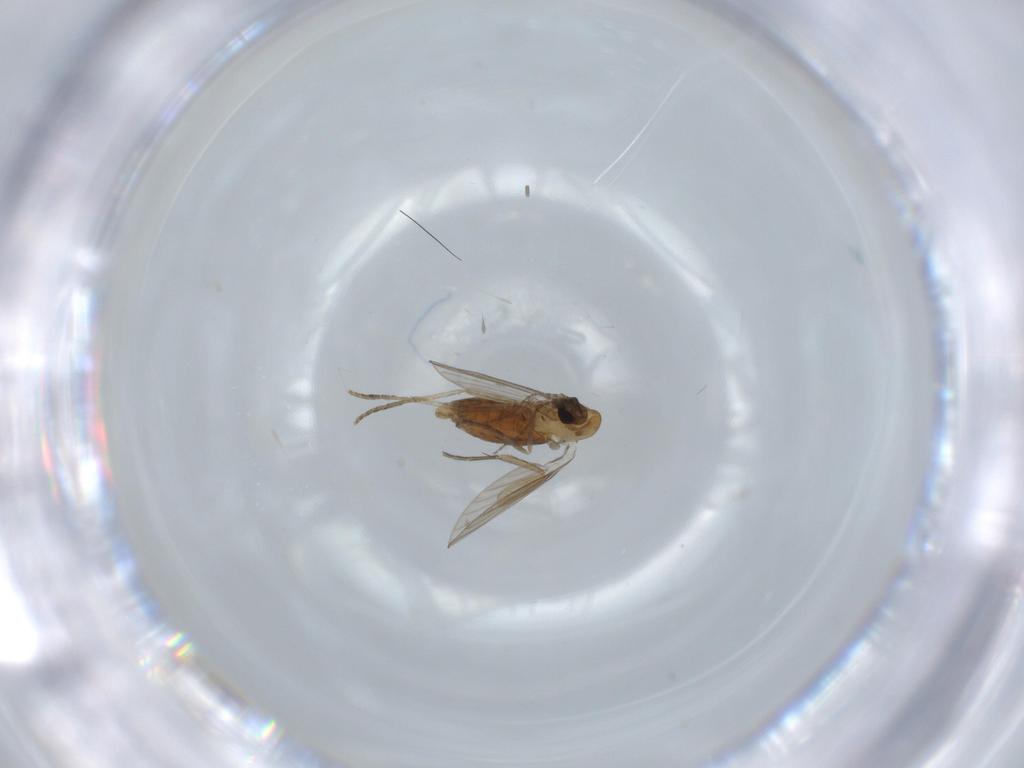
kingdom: Animalia
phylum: Arthropoda
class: Insecta
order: Diptera
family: Psychodidae
